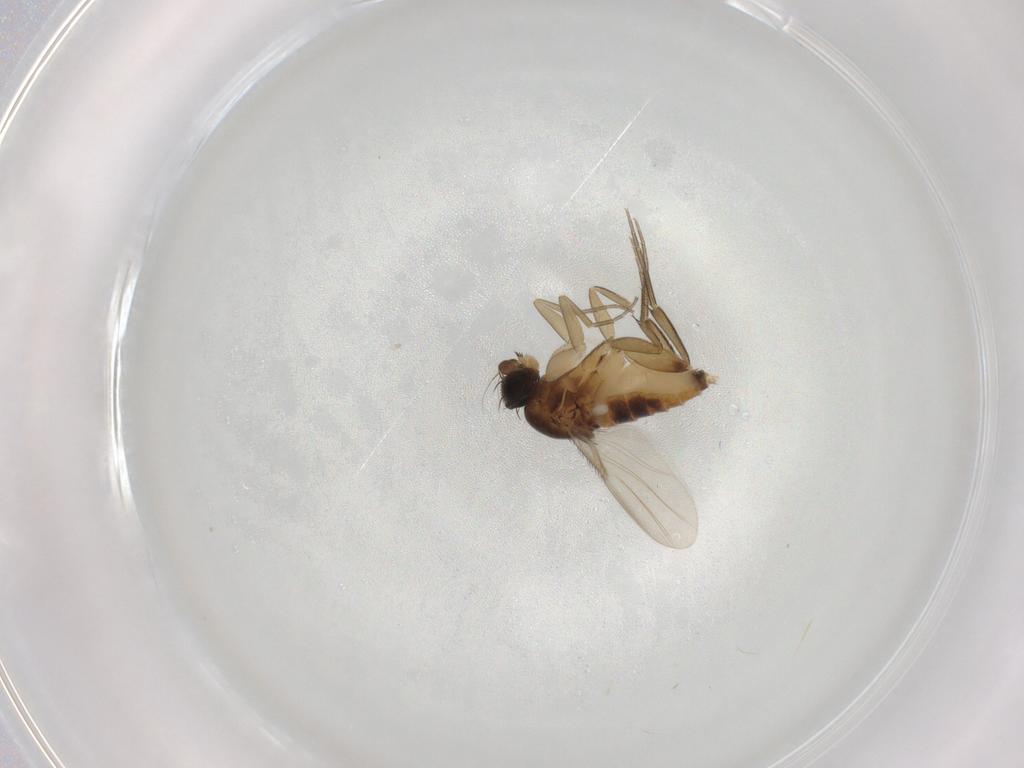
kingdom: Animalia
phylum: Arthropoda
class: Insecta
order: Diptera
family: Phoridae
